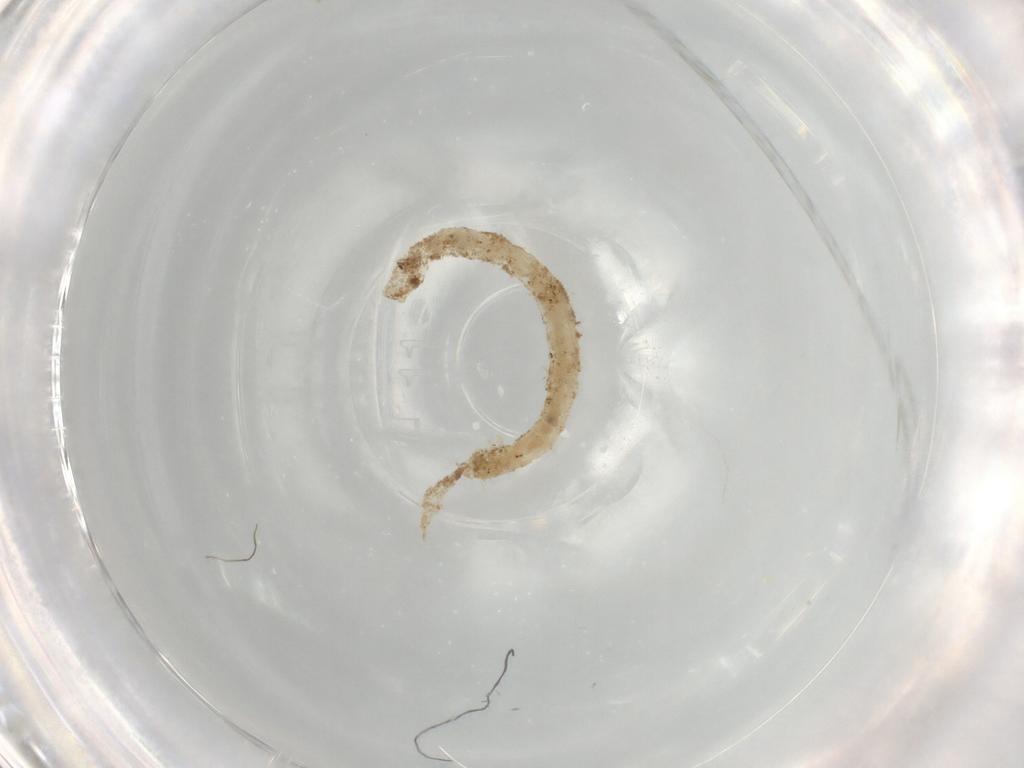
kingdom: Animalia
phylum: Arthropoda
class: Insecta
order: Diptera
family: Chironomidae
